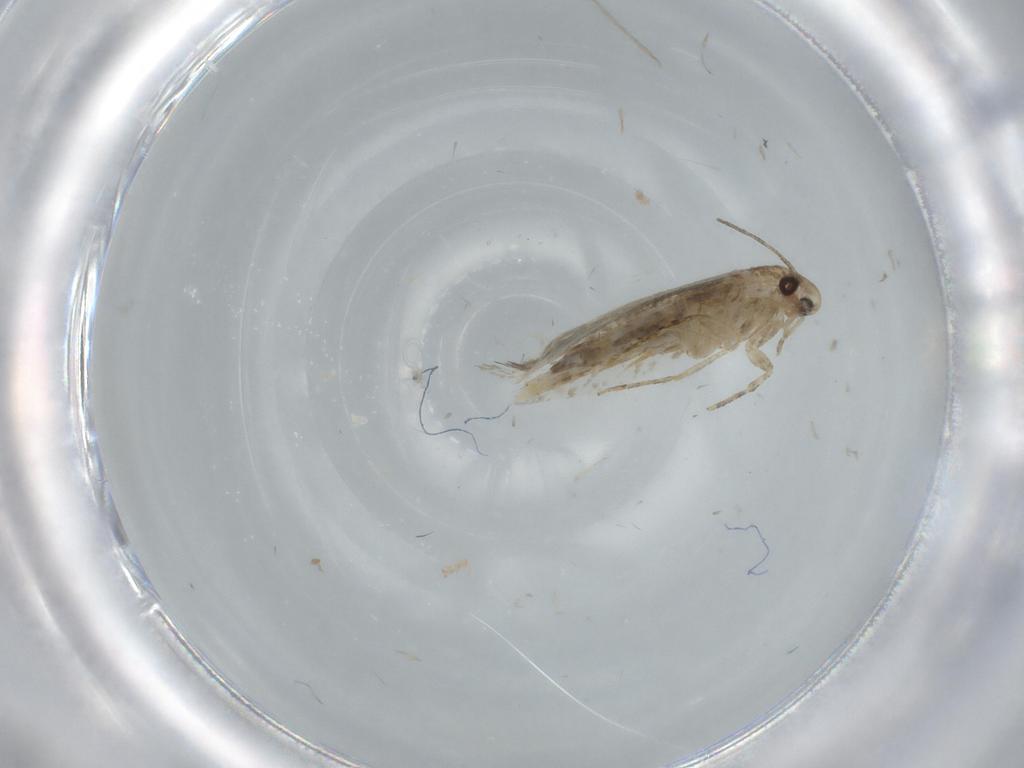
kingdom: Animalia
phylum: Arthropoda
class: Insecta
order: Lepidoptera
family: Tineidae
